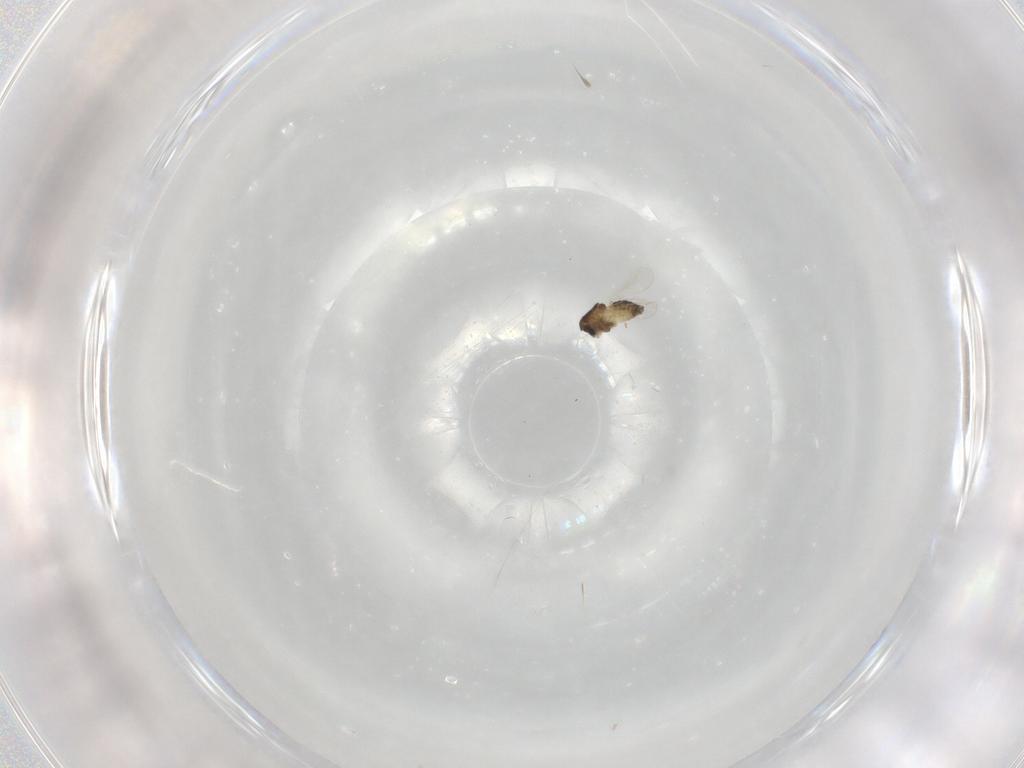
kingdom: Animalia
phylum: Arthropoda
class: Insecta
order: Diptera
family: Chironomidae
